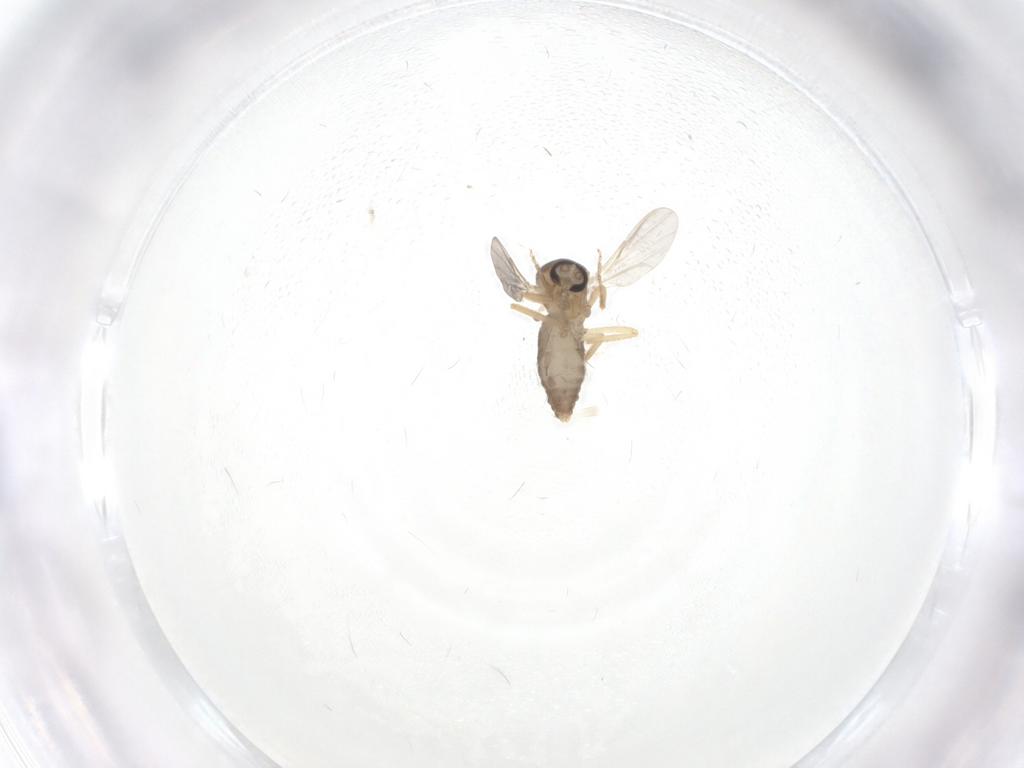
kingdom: Animalia
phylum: Arthropoda
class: Insecta
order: Diptera
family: Ceratopogonidae
